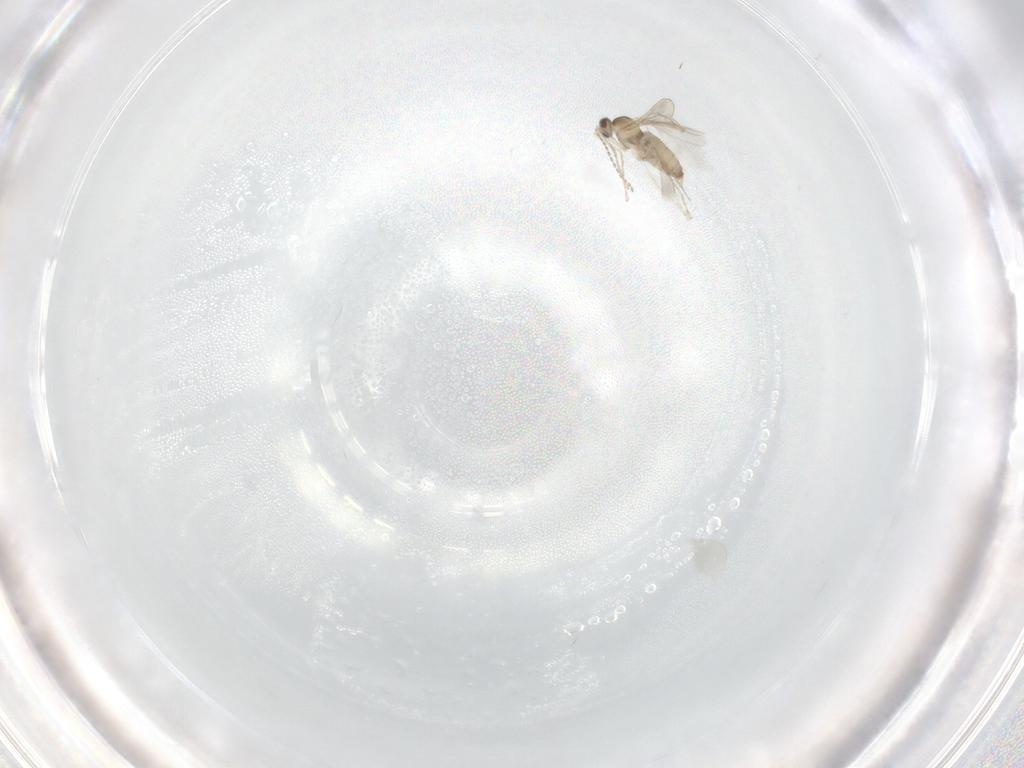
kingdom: Animalia
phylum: Arthropoda
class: Insecta
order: Diptera
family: Cecidomyiidae
